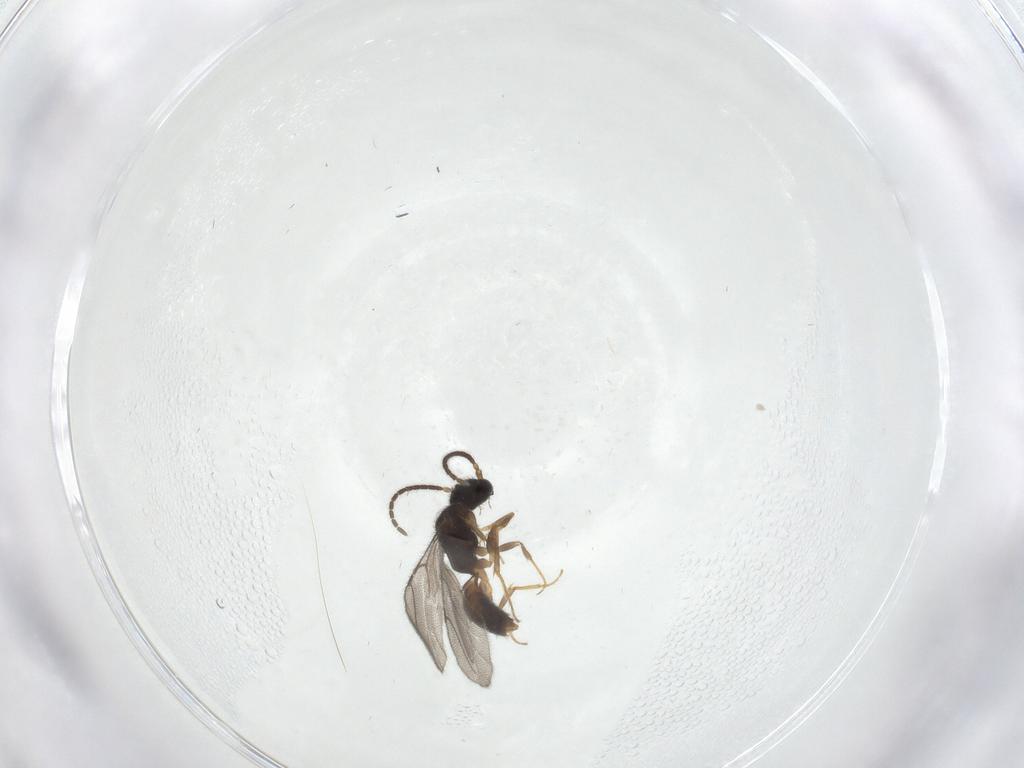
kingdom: Animalia
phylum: Arthropoda
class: Insecta
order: Hymenoptera
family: Bethylidae
